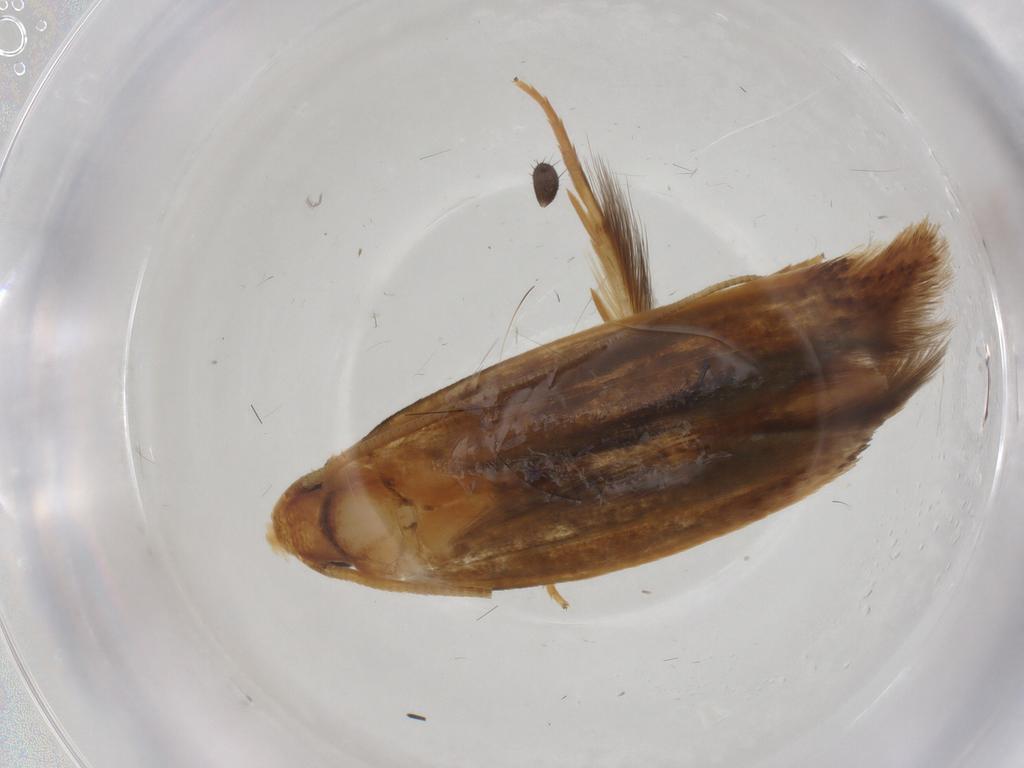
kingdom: Animalia
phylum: Arthropoda
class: Insecta
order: Lepidoptera
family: Tineidae
